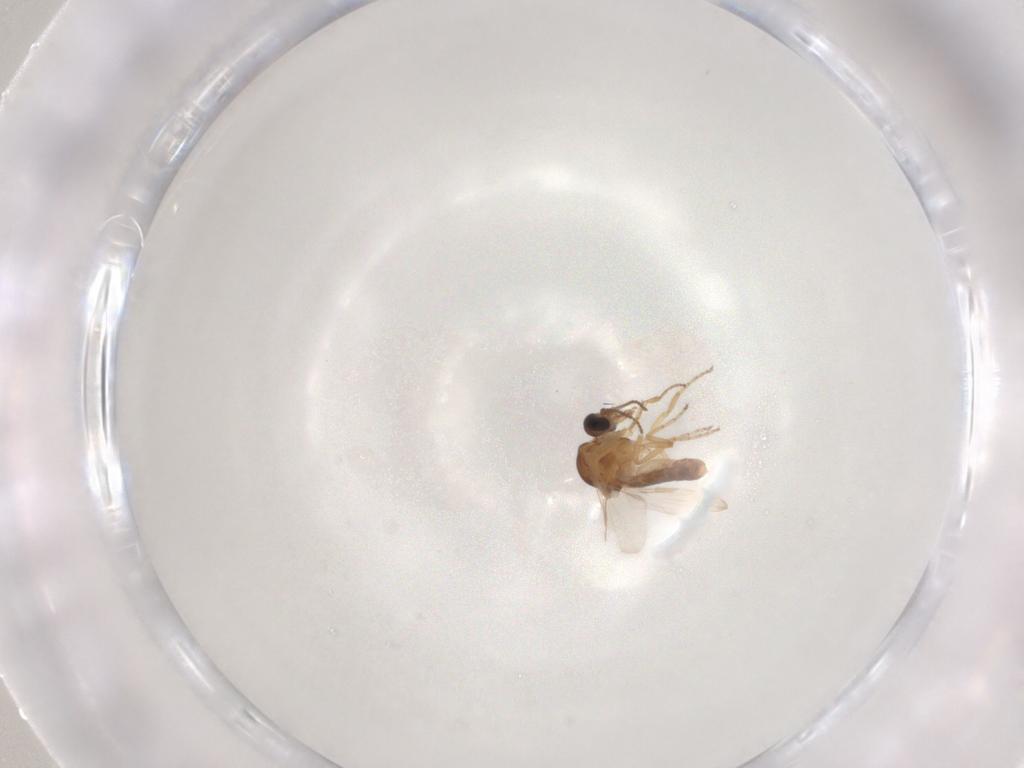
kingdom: Animalia
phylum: Arthropoda
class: Insecta
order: Diptera
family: Ceratopogonidae
